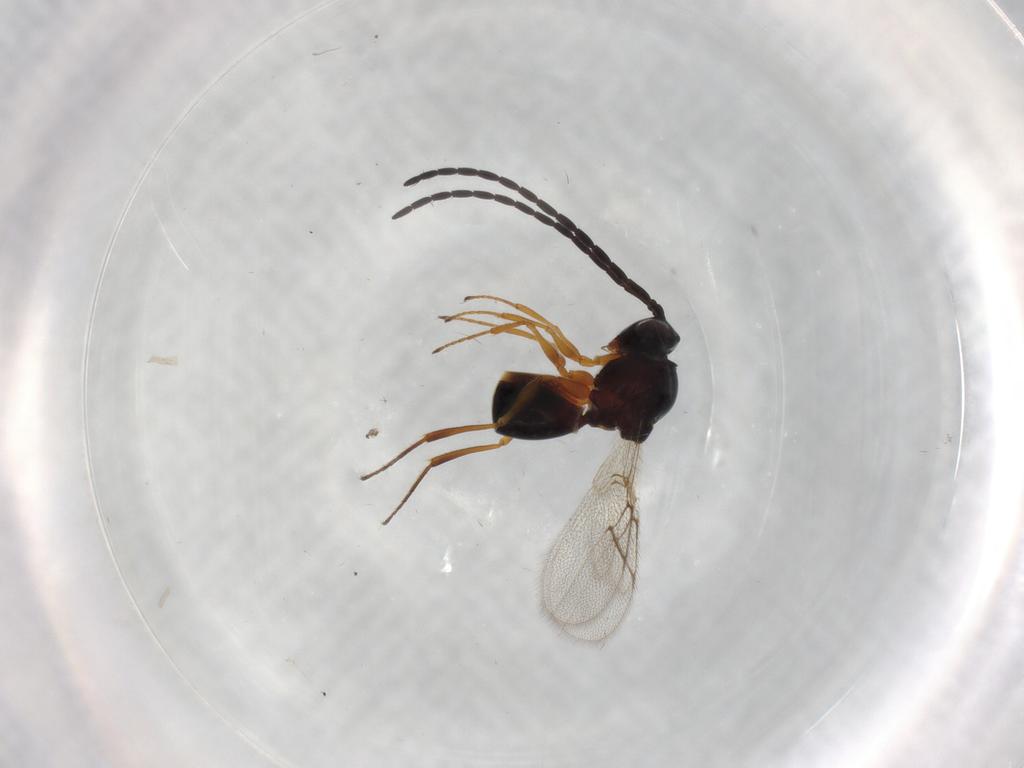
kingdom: Animalia
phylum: Arthropoda
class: Insecta
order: Hymenoptera
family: Figitidae
